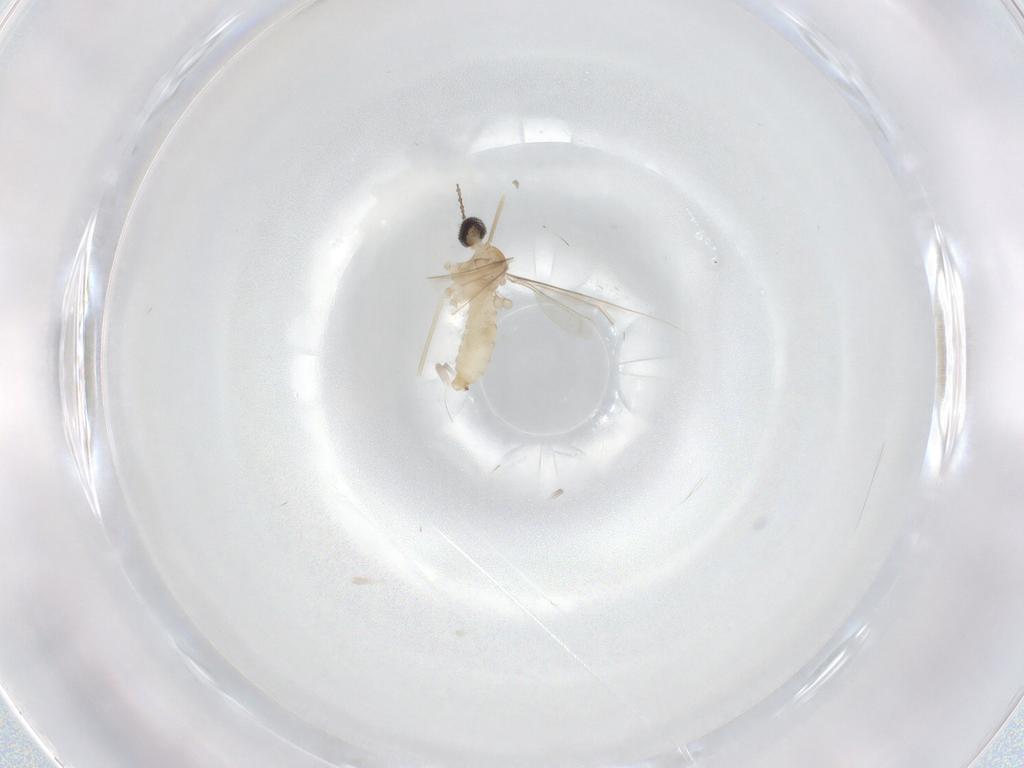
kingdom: Animalia
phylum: Arthropoda
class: Insecta
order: Diptera
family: Cecidomyiidae
